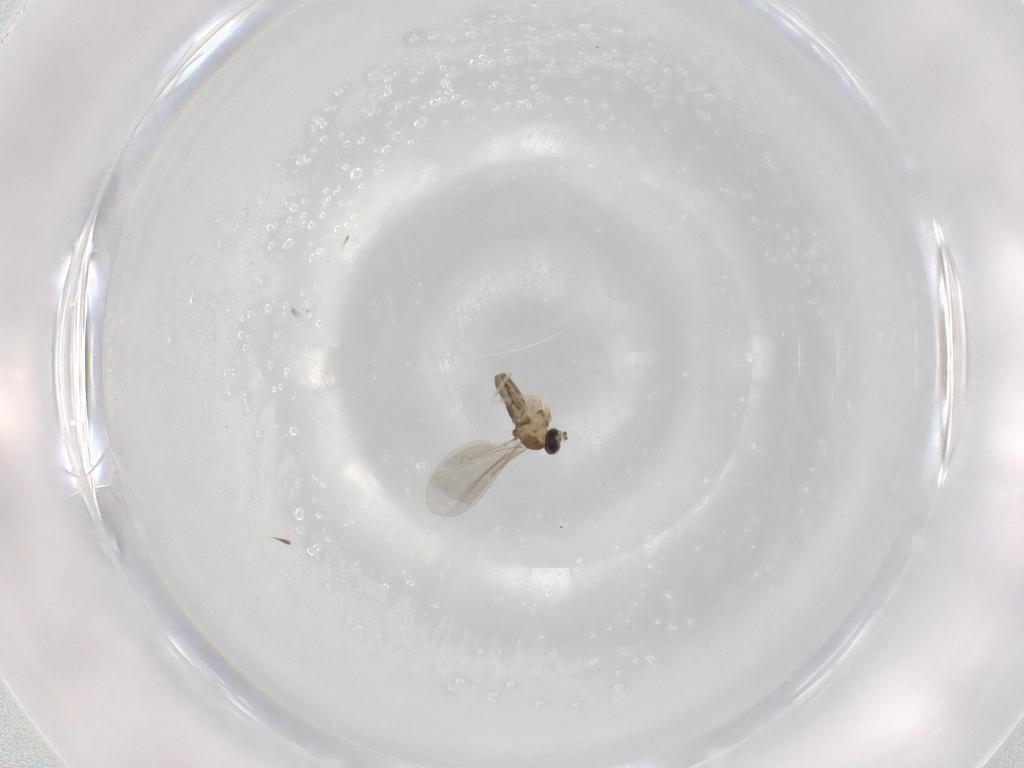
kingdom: Animalia
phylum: Arthropoda
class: Insecta
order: Diptera
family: Cecidomyiidae
